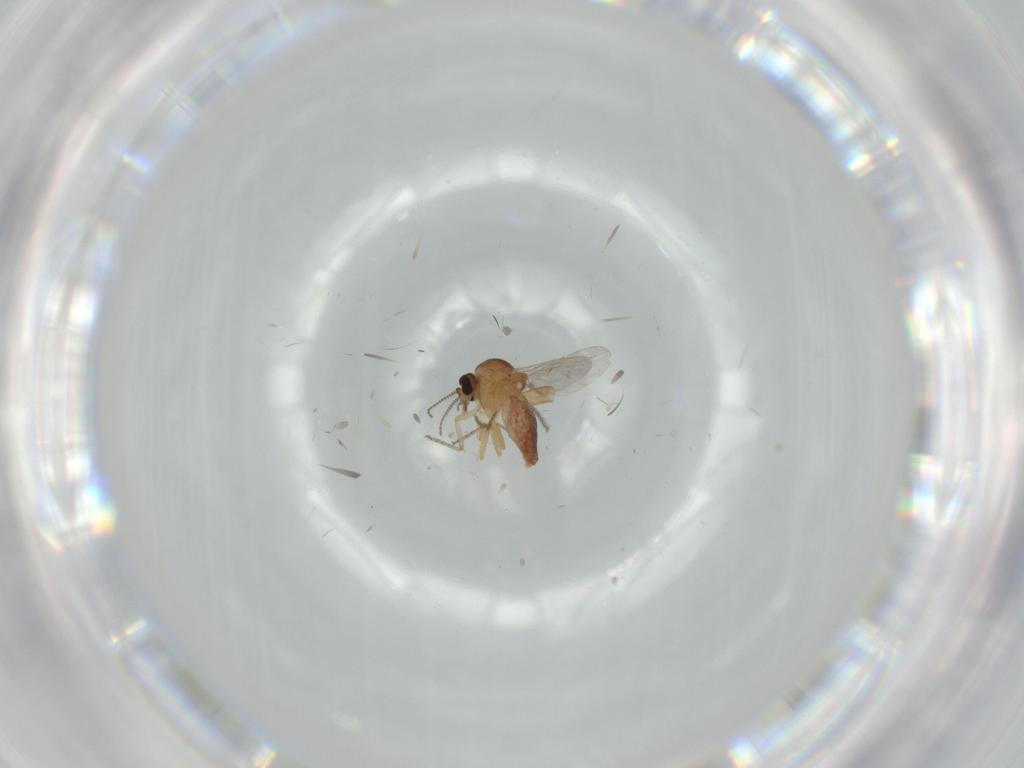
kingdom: Animalia
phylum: Arthropoda
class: Insecta
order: Diptera
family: Ceratopogonidae
